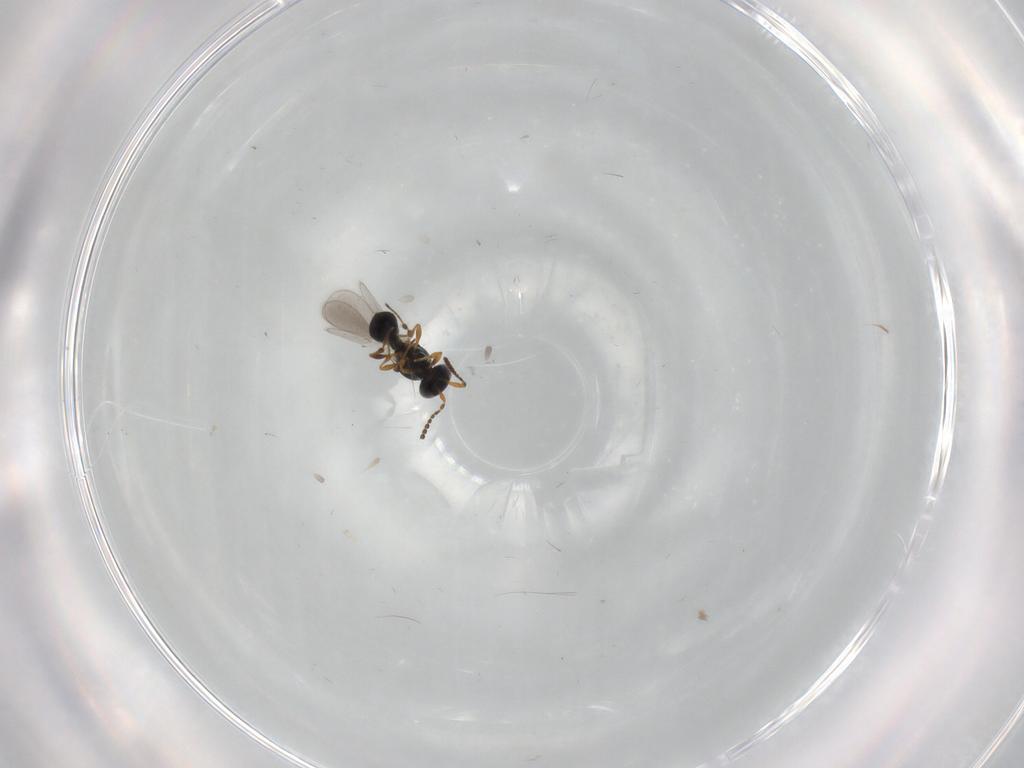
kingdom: Animalia
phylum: Arthropoda
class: Insecta
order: Hymenoptera
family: Platygastridae
